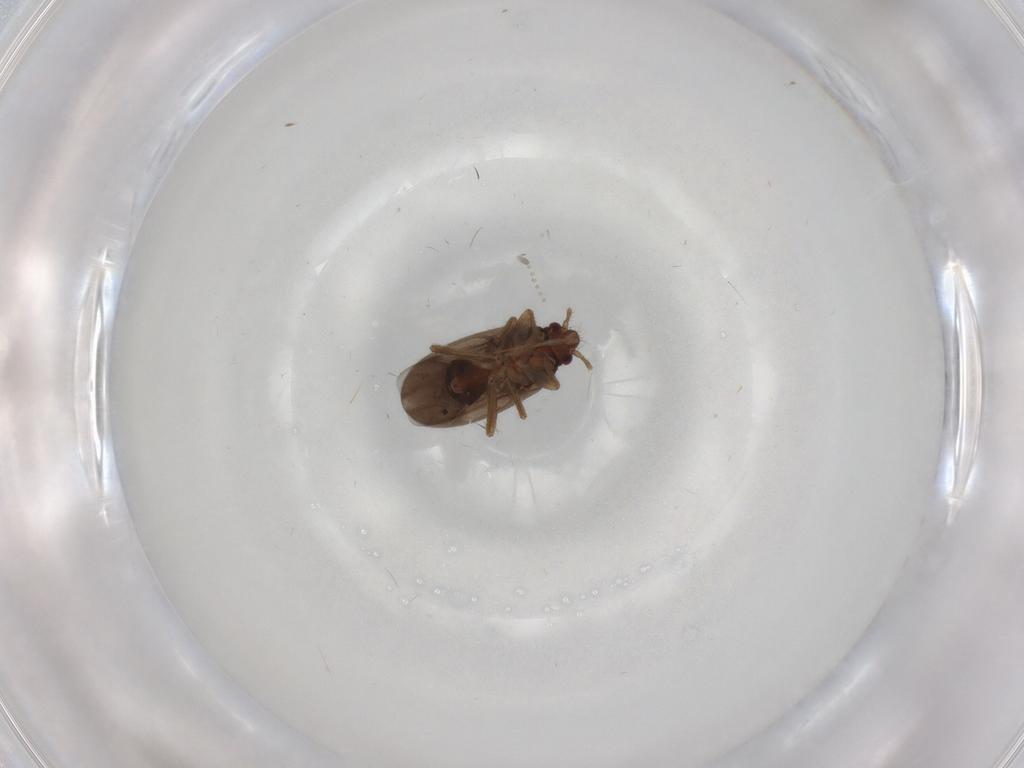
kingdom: Animalia
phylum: Arthropoda
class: Insecta
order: Hemiptera
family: Ceratocombidae
